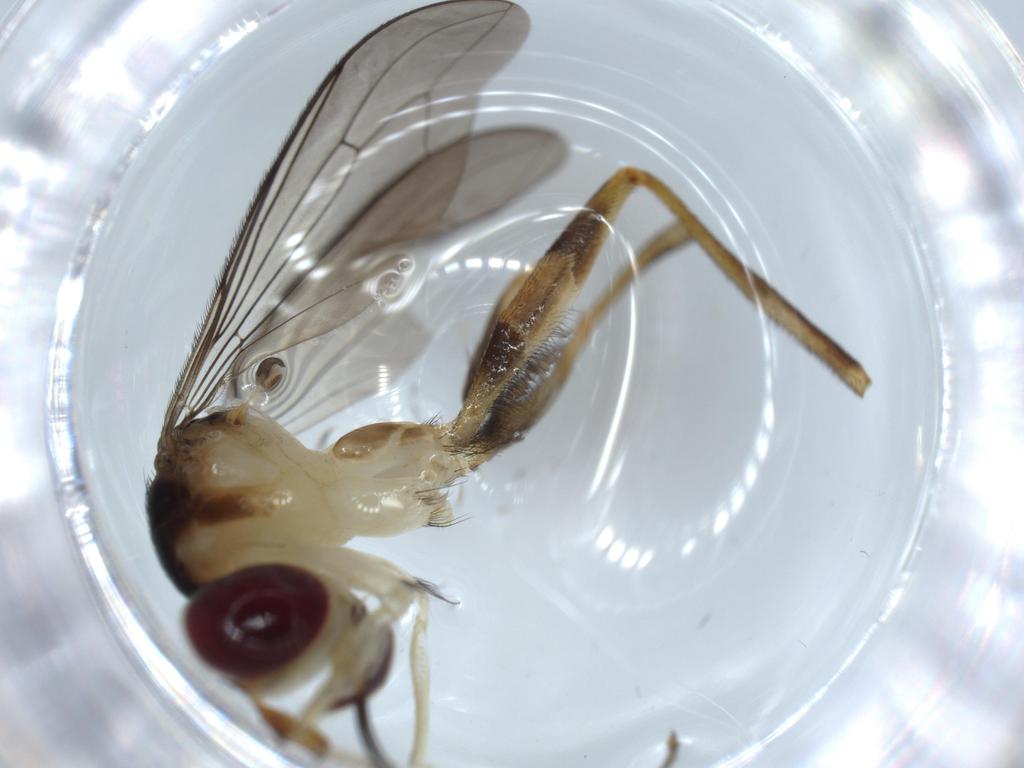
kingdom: Animalia
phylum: Arthropoda
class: Insecta
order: Diptera
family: Conopidae
